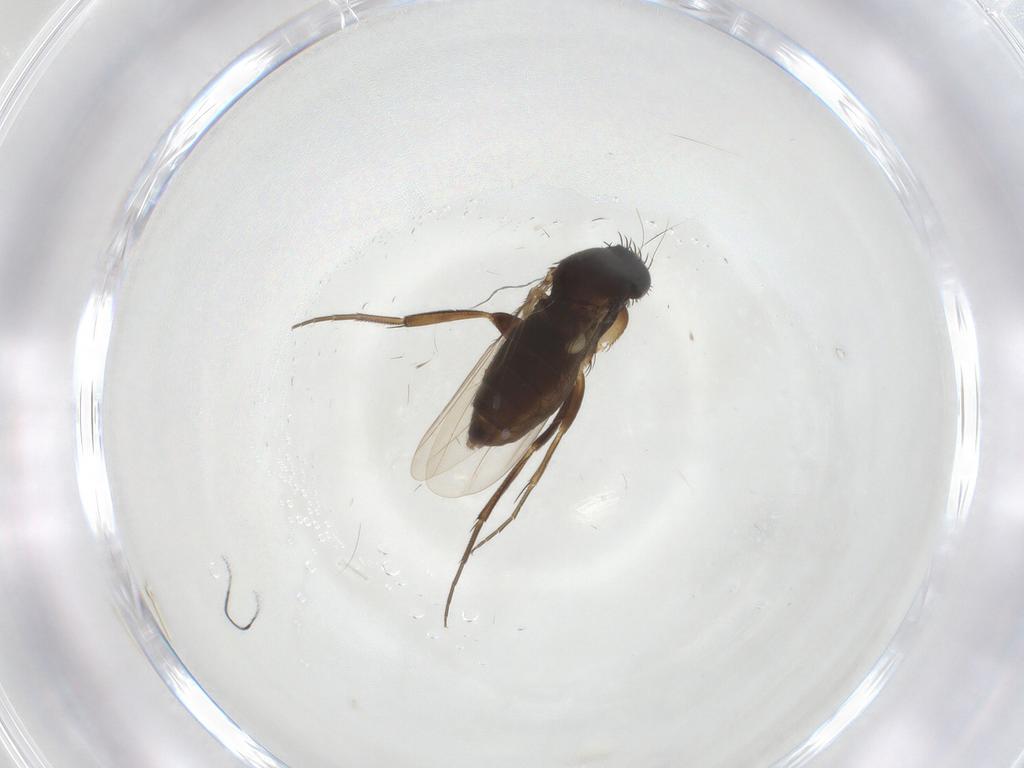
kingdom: Animalia
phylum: Arthropoda
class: Insecta
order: Diptera
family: Phoridae
